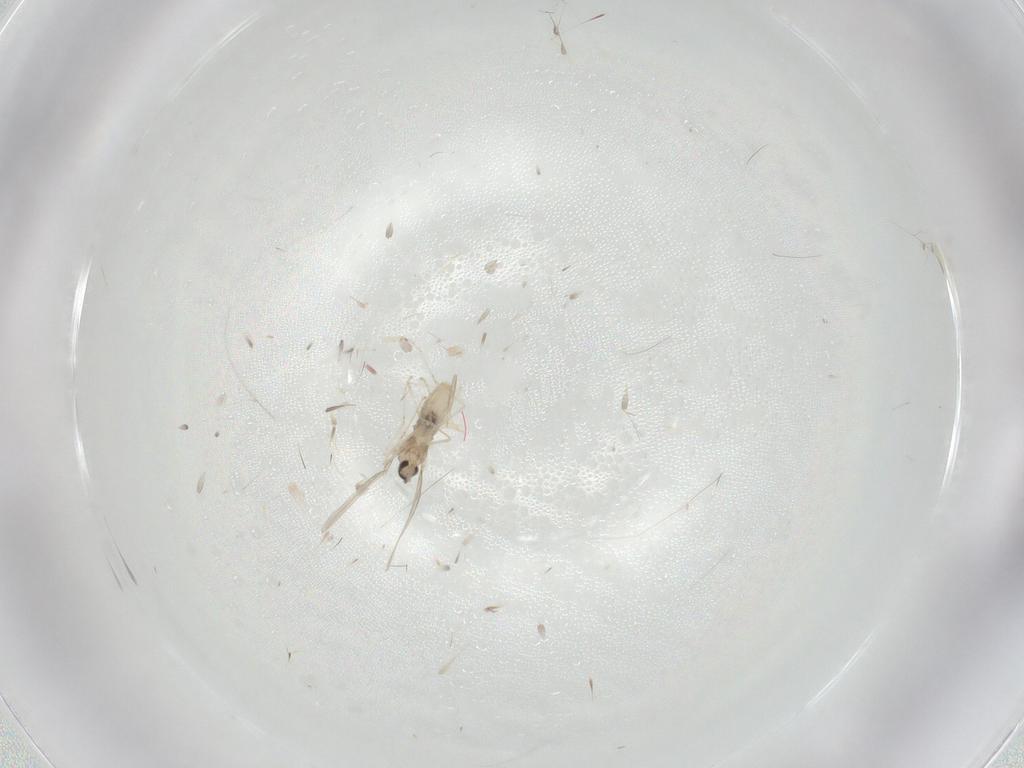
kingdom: Animalia
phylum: Arthropoda
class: Insecta
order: Diptera
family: Cecidomyiidae
